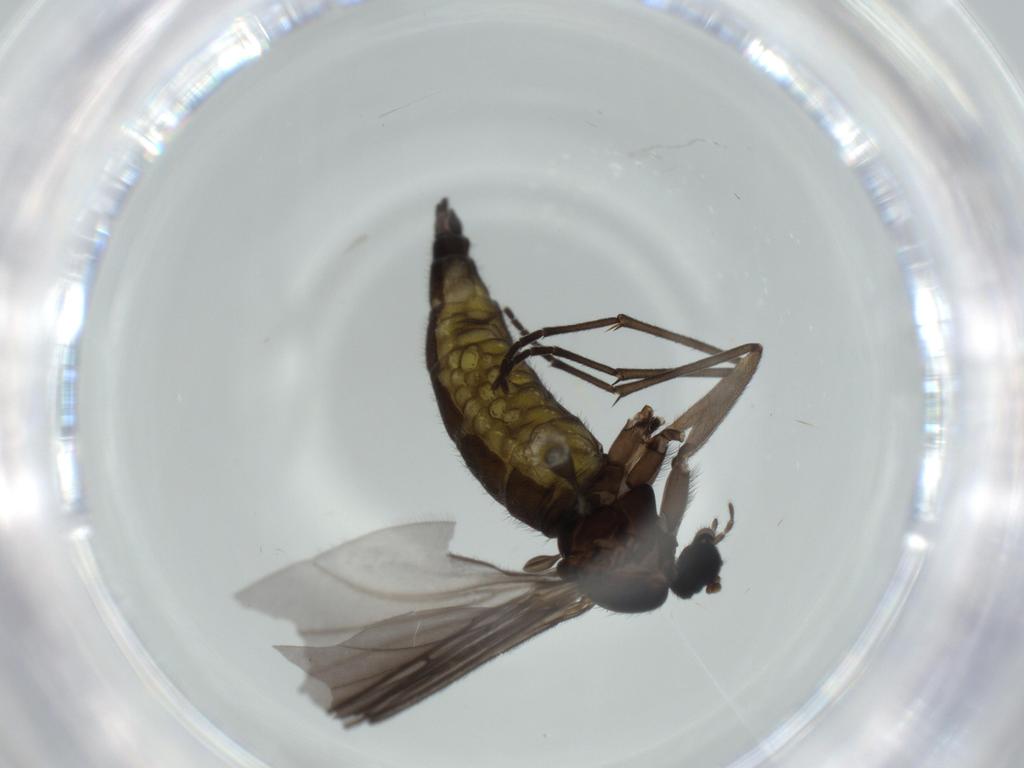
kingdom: Animalia
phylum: Arthropoda
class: Insecta
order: Diptera
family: Sciaridae
